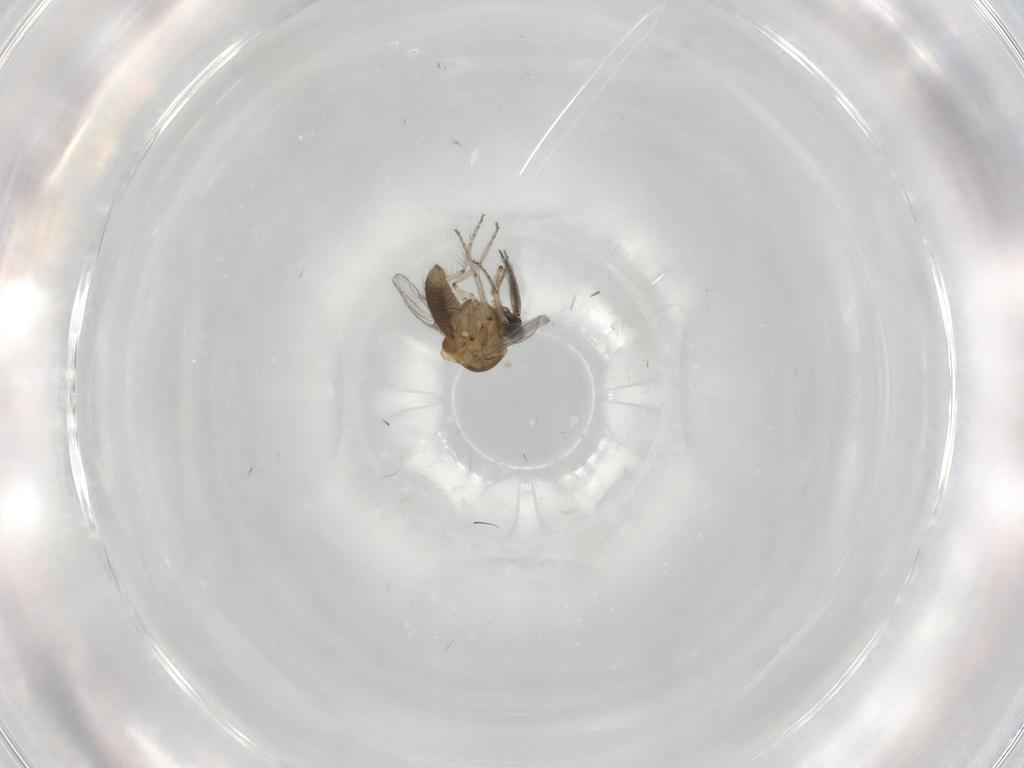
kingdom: Animalia
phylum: Arthropoda
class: Insecta
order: Diptera
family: Ceratopogonidae
